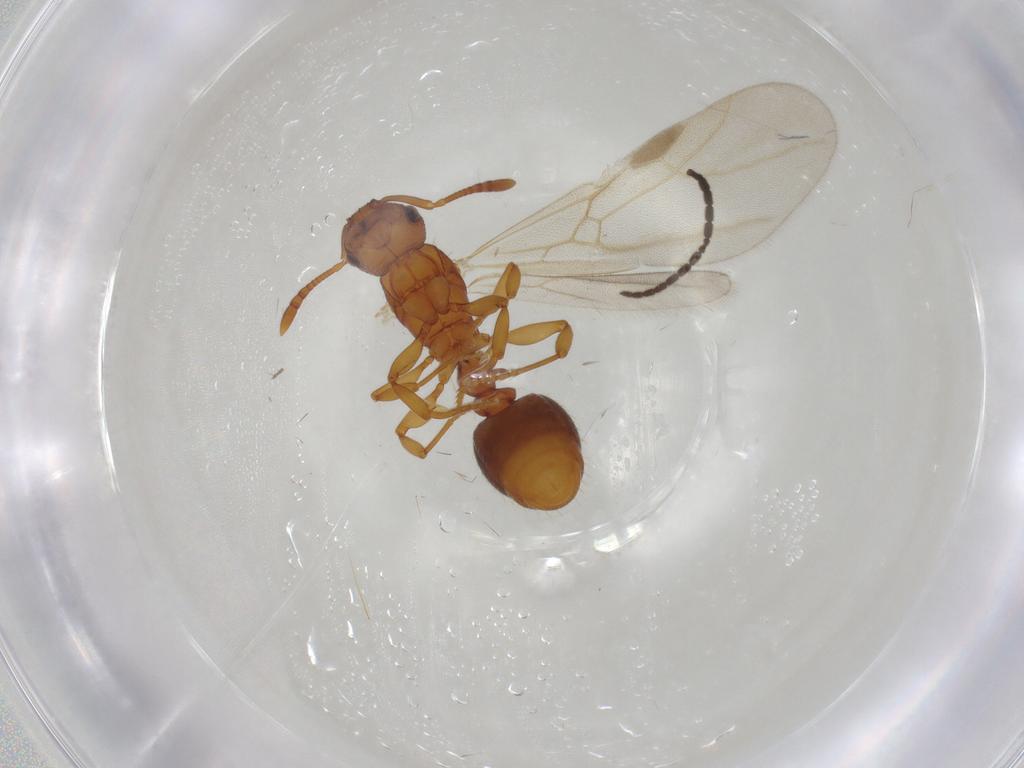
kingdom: Animalia
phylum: Arthropoda
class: Insecta
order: Hymenoptera
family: Formicidae
